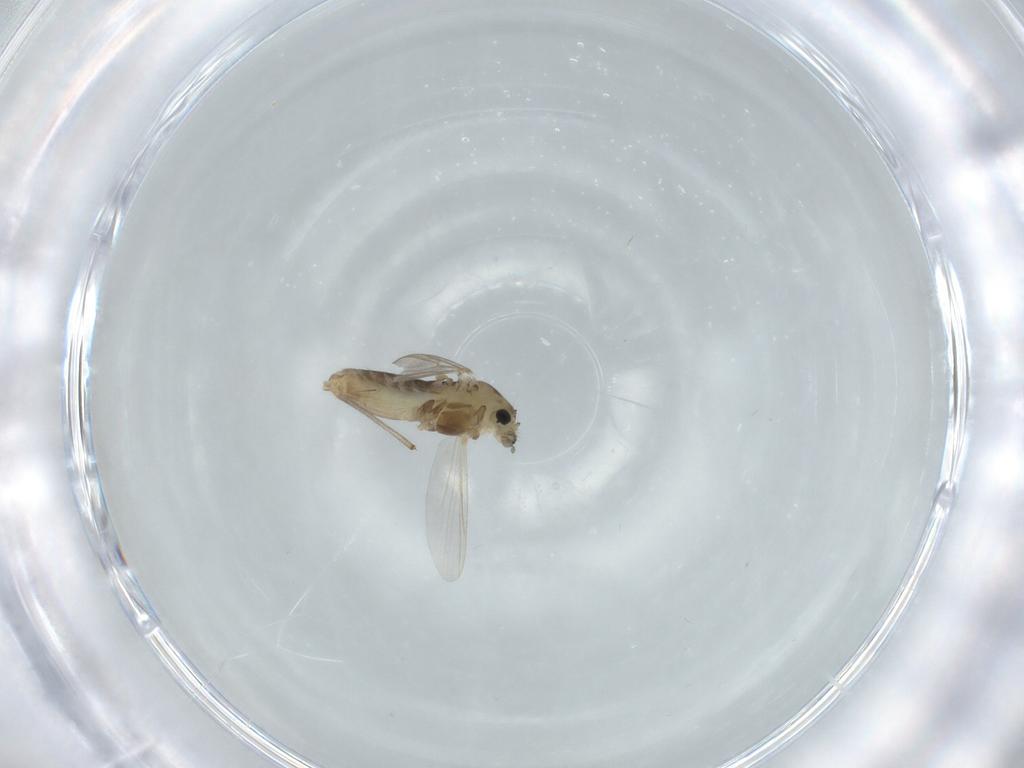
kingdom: Animalia
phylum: Arthropoda
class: Insecta
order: Diptera
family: Chironomidae
